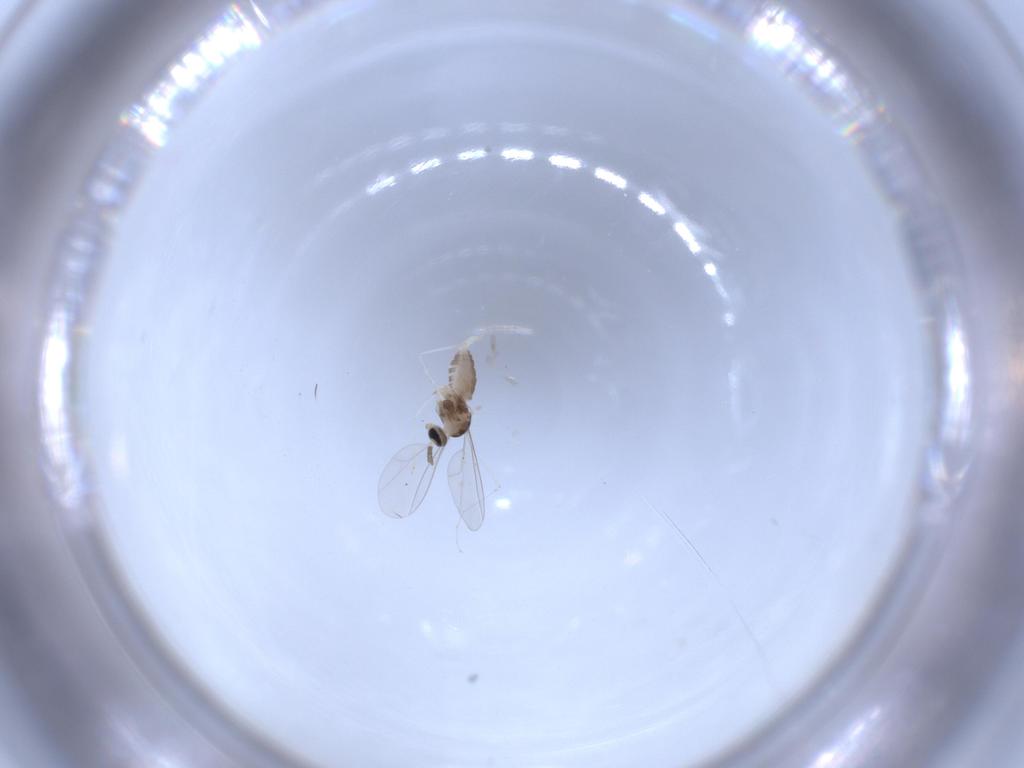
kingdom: Animalia
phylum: Arthropoda
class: Insecta
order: Diptera
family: Cecidomyiidae
